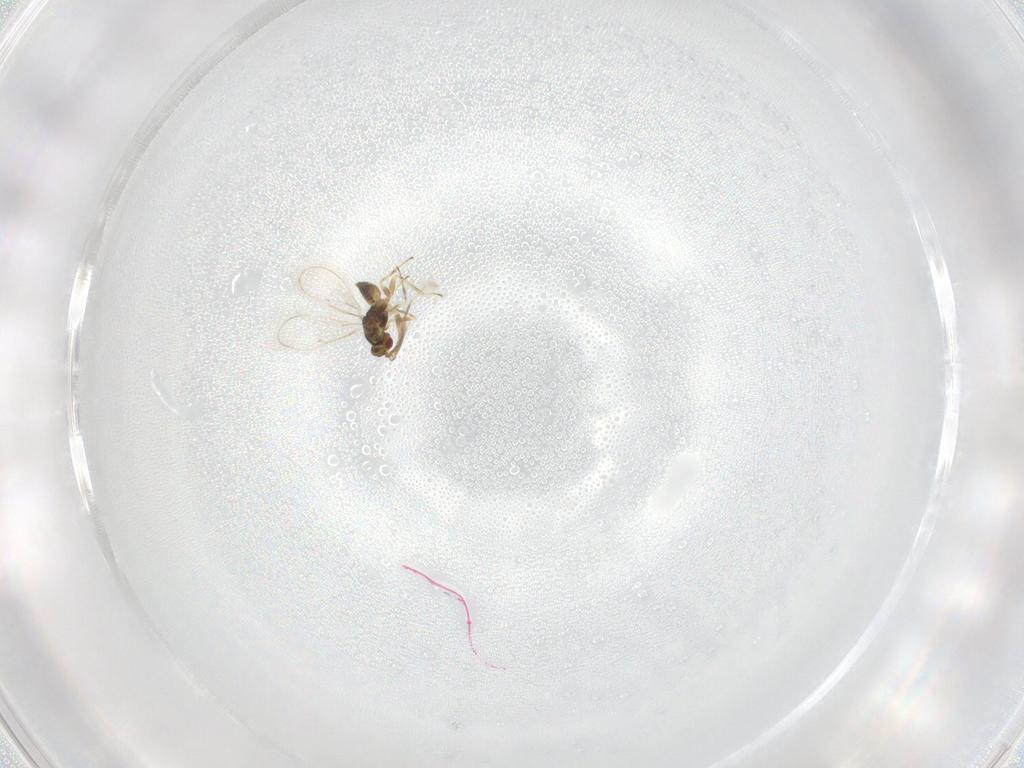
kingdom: Animalia
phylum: Arthropoda
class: Insecta
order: Hymenoptera
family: Eulophidae
